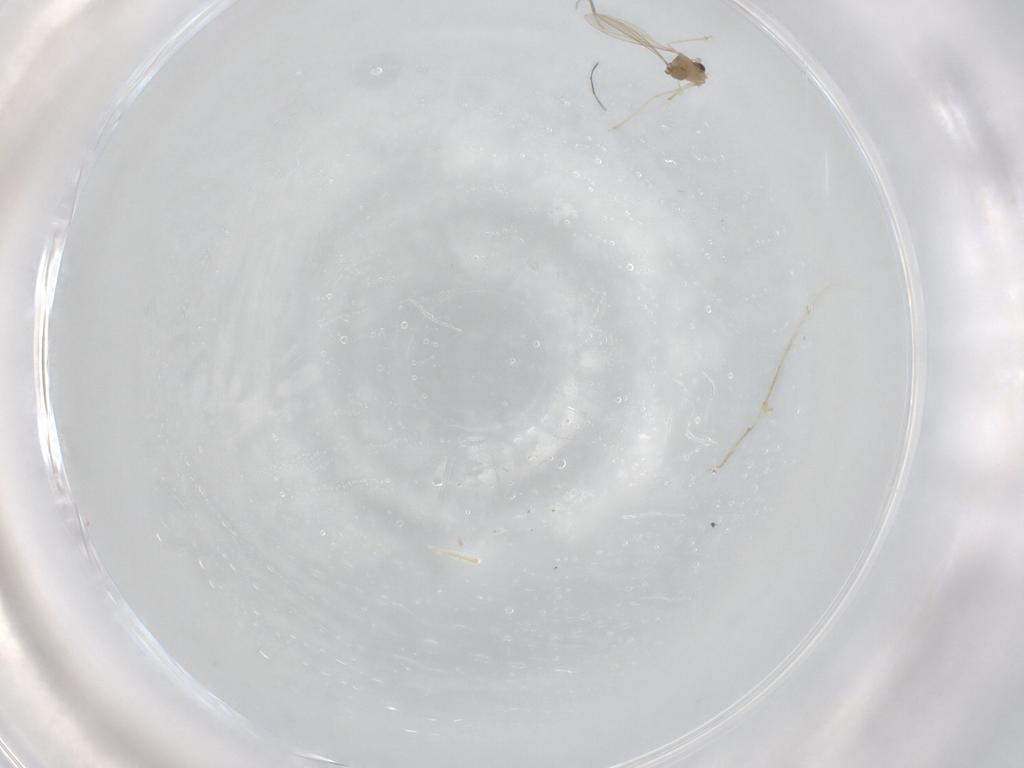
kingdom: Animalia
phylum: Arthropoda
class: Insecta
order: Diptera
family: Cecidomyiidae
